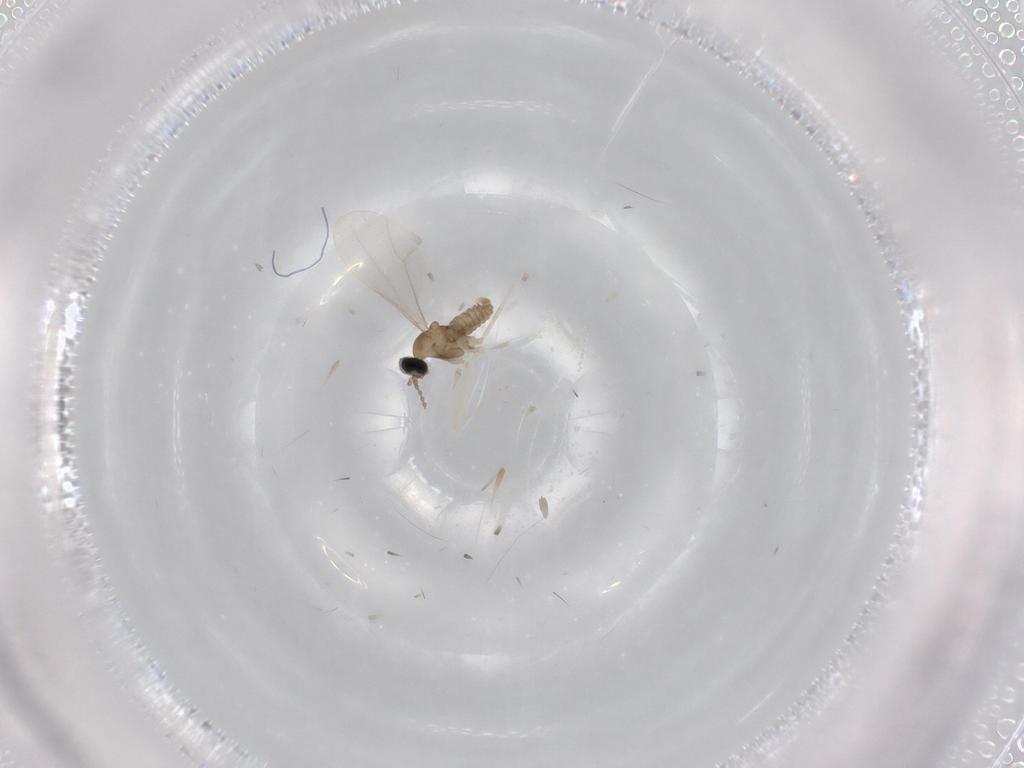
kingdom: Animalia
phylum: Arthropoda
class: Insecta
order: Diptera
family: Cecidomyiidae
